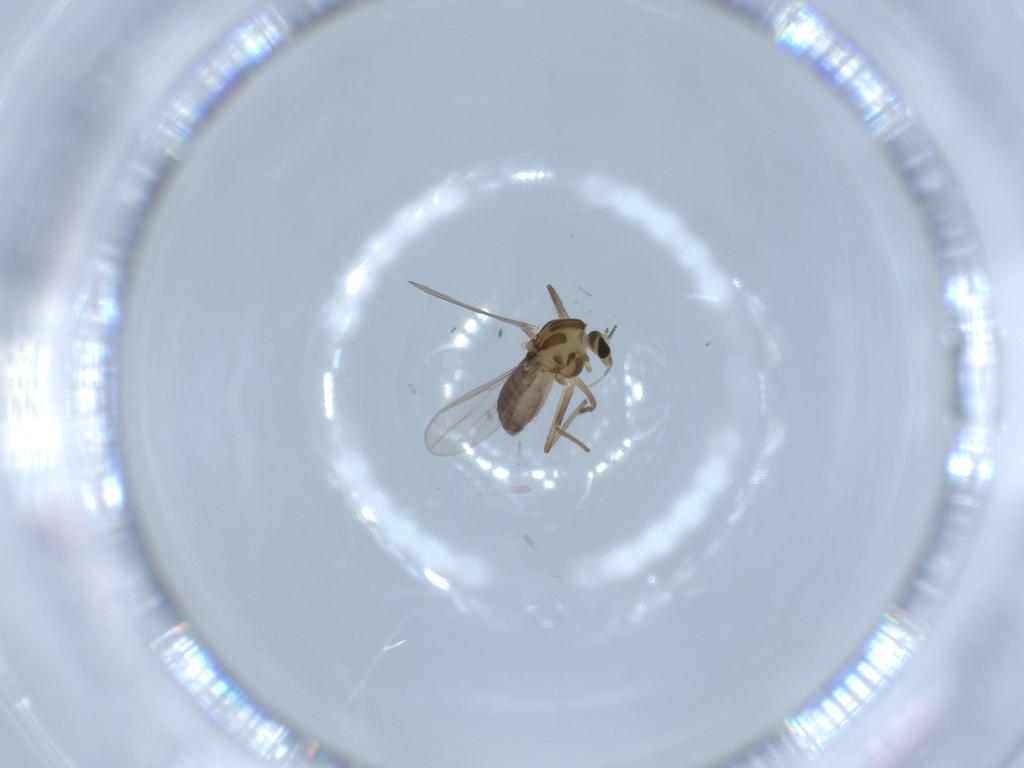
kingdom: Animalia
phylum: Arthropoda
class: Insecta
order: Diptera
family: Chironomidae
